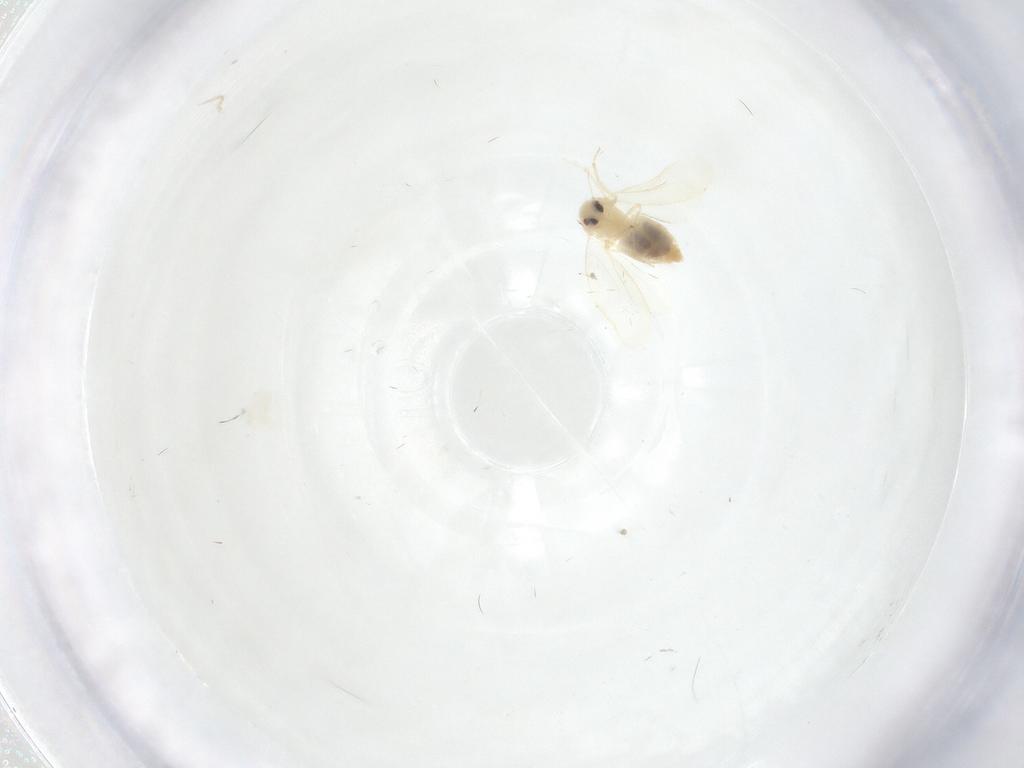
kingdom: Animalia
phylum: Arthropoda
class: Insecta
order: Hemiptera
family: Aleyrodidae
